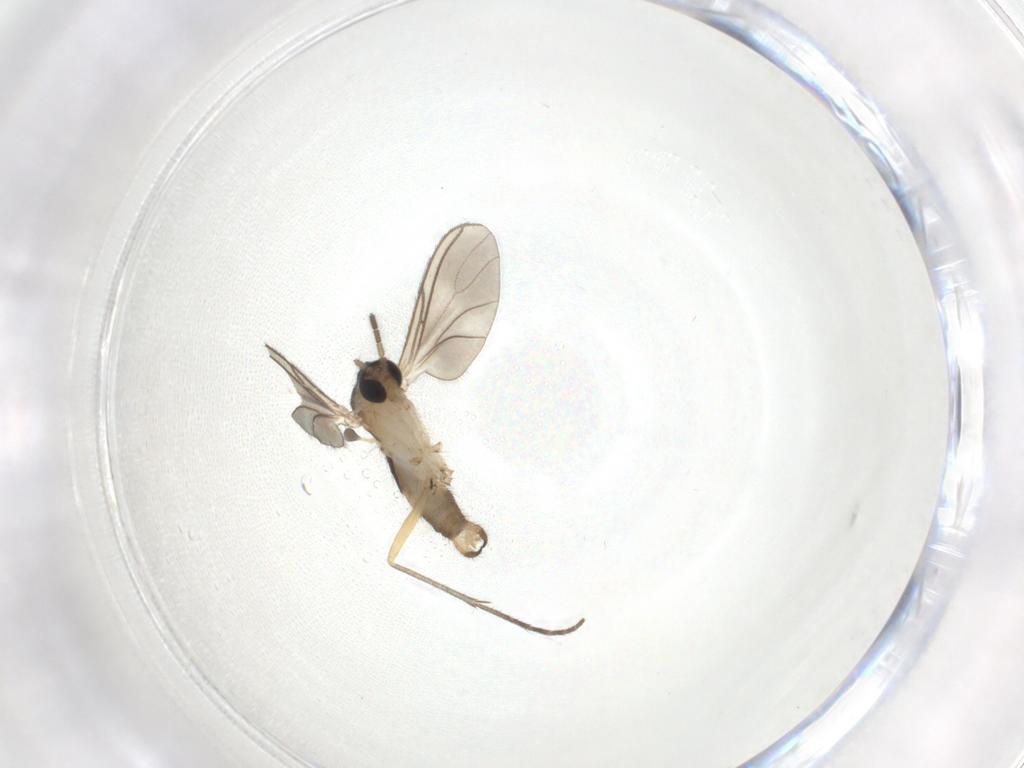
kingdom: Animalia
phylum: Arthropoda
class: Insecta
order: Diptera
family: Sciaridae
